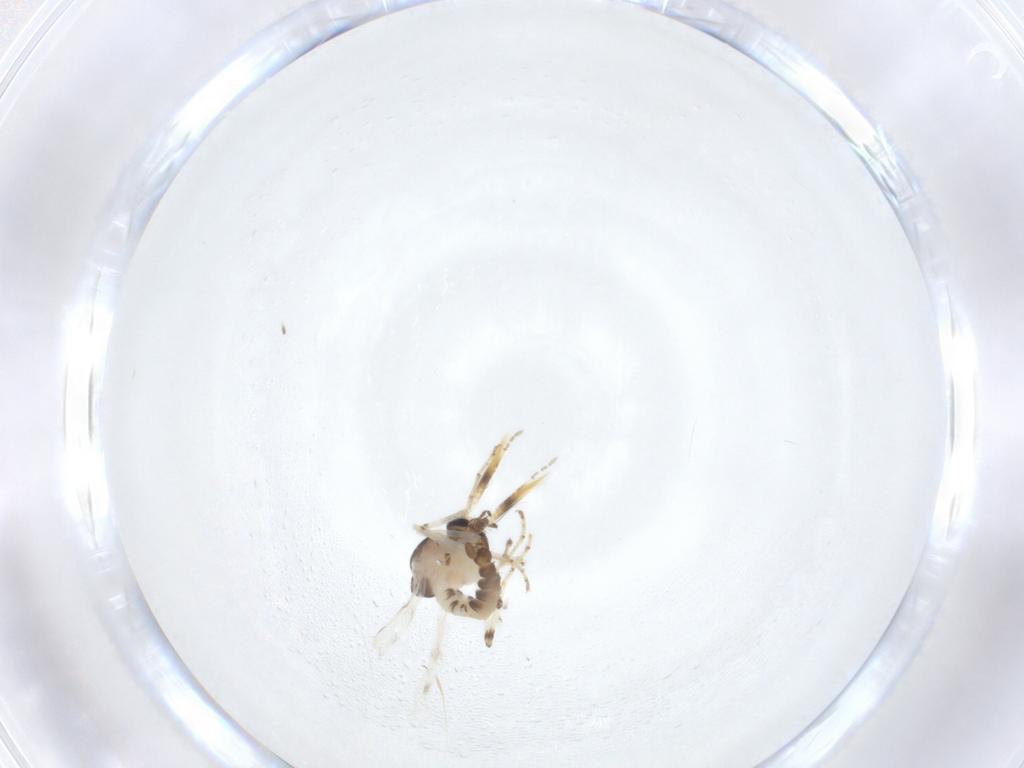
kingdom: Animalia
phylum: Arthropoda
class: Insecta
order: Diptera
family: Ceratopogonidae
